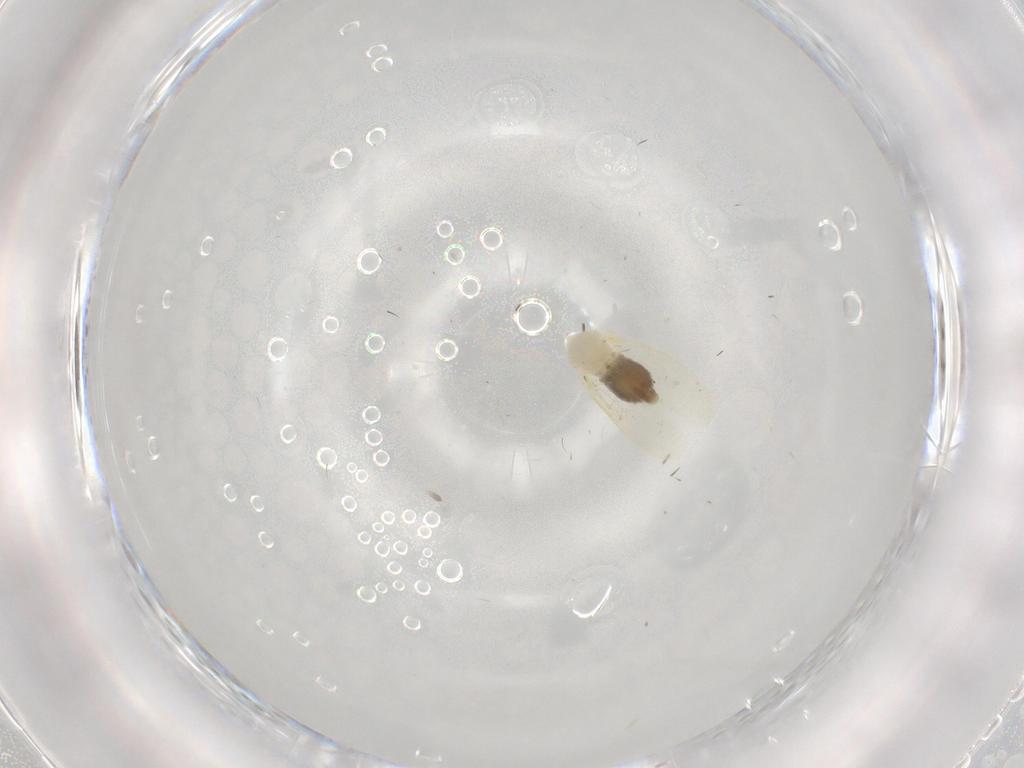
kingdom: Animalia
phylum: Arthropoda
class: Insecta
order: Hemiptera
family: Aleyrodidae
